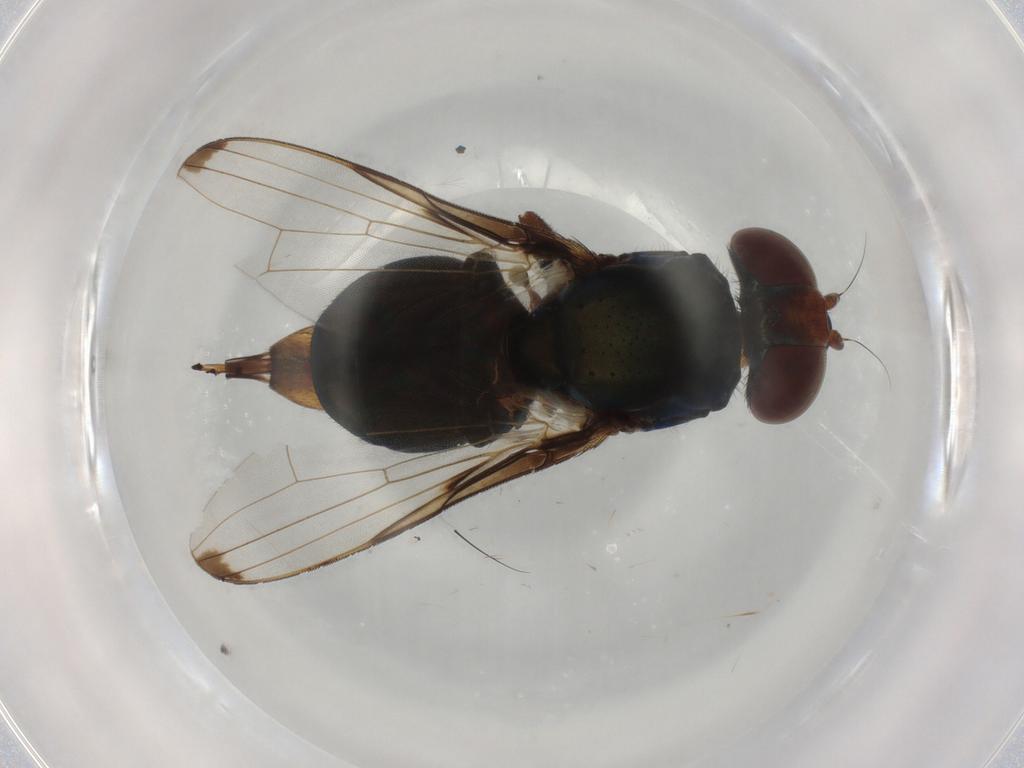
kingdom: Animalia
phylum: Arthropoda
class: Insecta
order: Diptera
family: Ulidiidae
